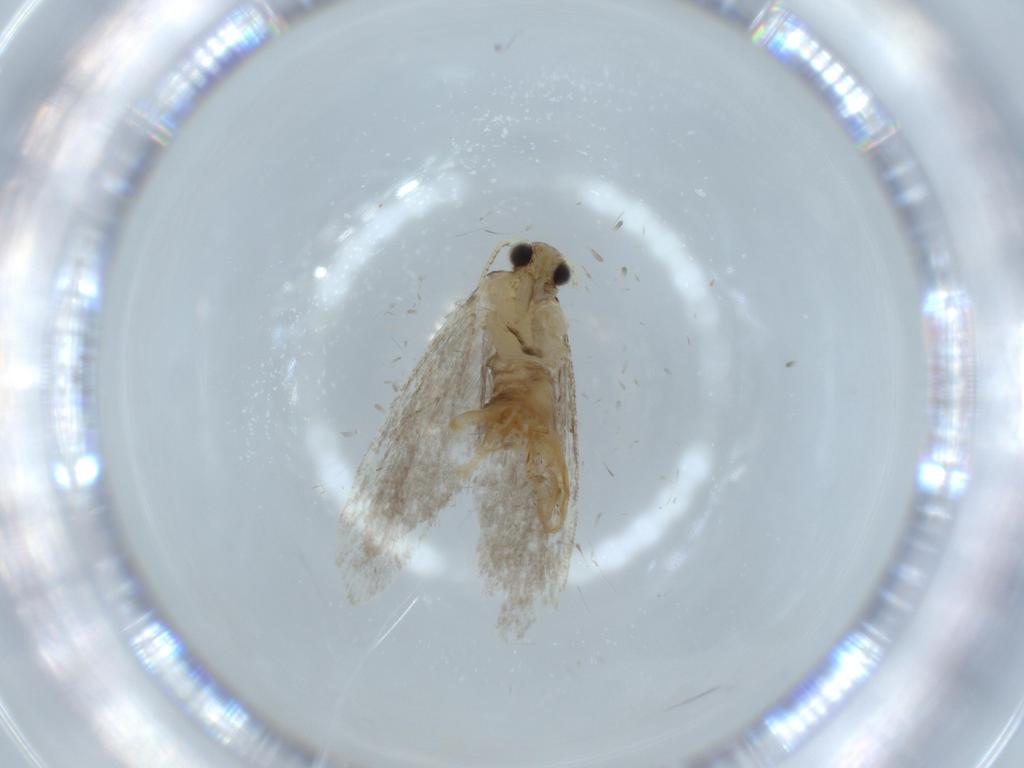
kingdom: Animalia
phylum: Arthropoda
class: Insecta
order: Lepidoptera
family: Tineidae
